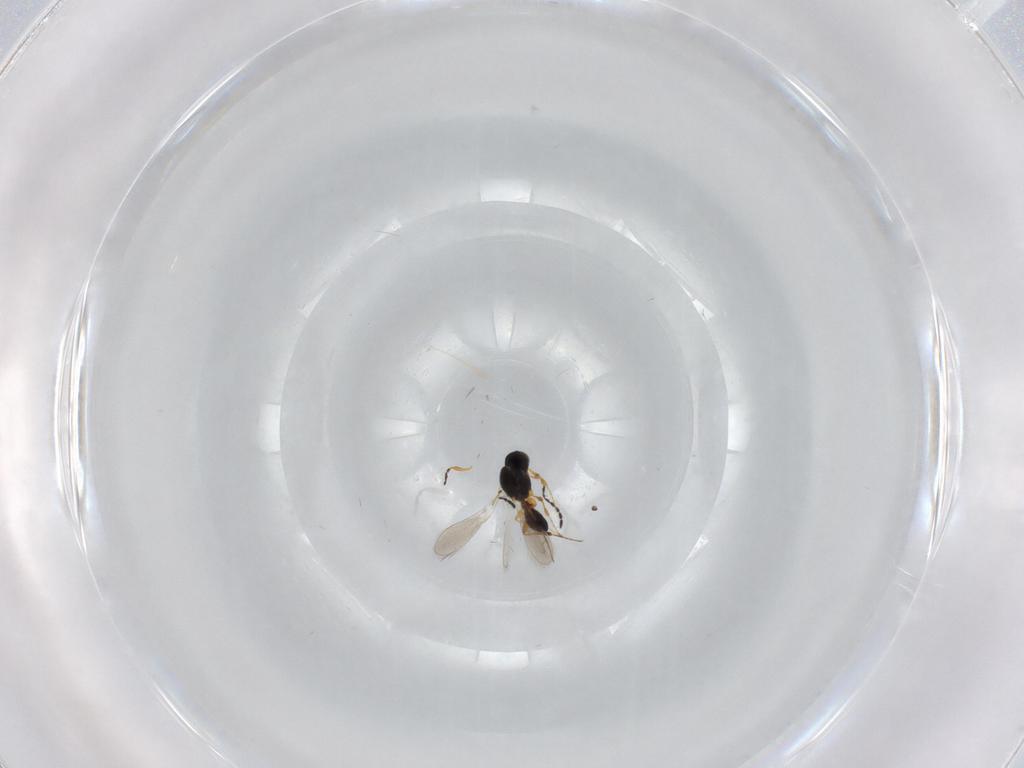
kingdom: Animalia
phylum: Arthropoda
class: Insecta
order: Hymenoptera
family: Platygastridae
